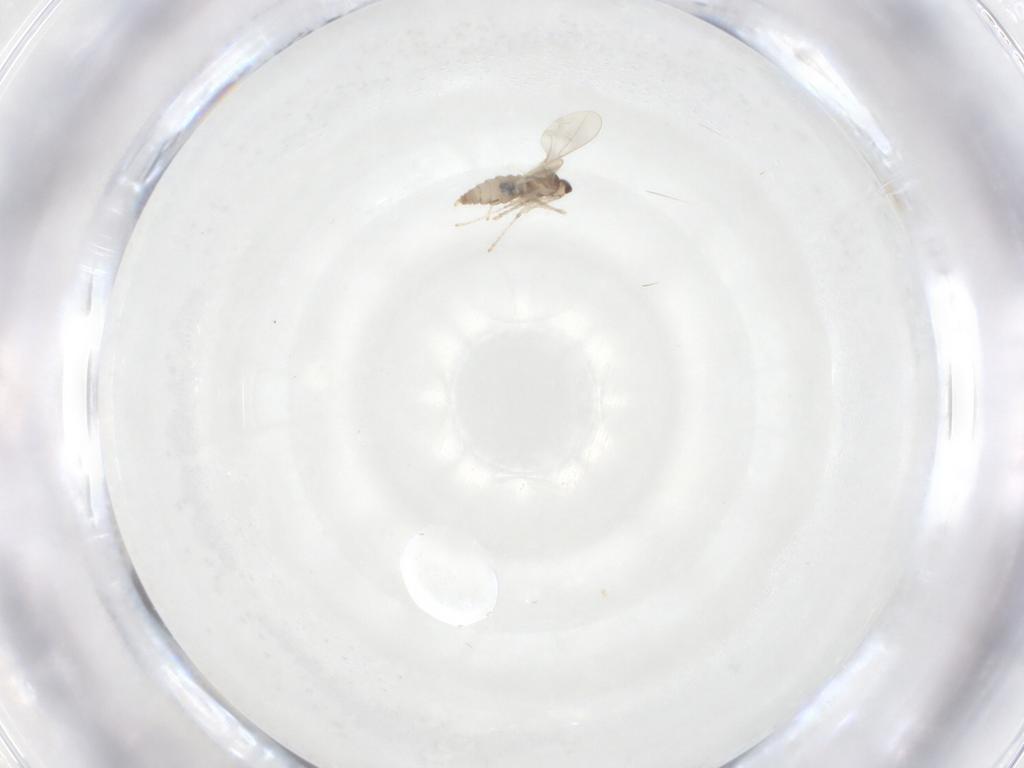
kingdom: Animalia
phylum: Arthropoda
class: Insecta
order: Diptera
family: Cecidomyiidae
